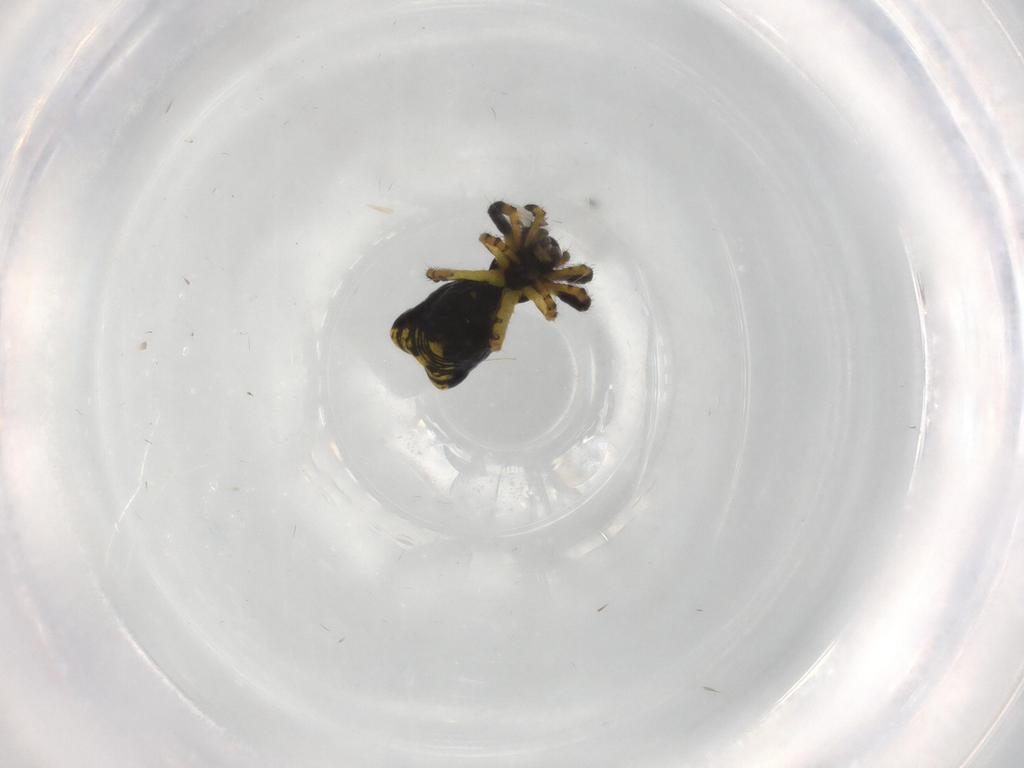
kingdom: Animalia
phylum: Arthropoda
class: Arachnida
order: Araneae
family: Araneidae
